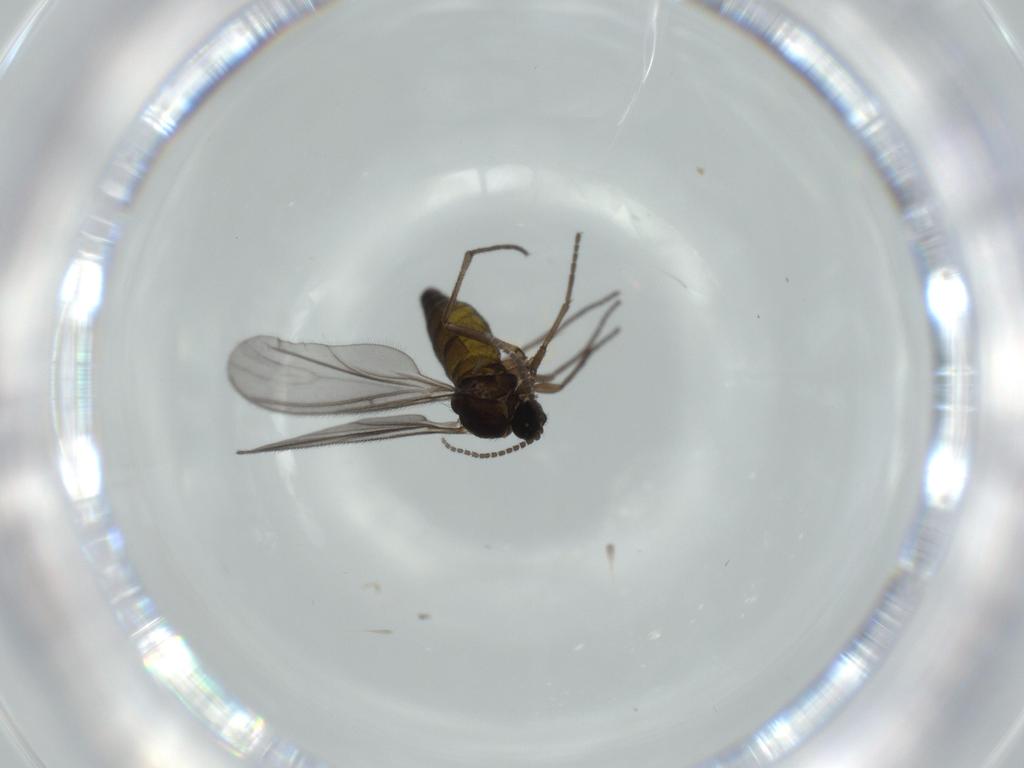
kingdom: Animalia
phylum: Arthropoda
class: Insecta
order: Diptera
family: Sciaridae
